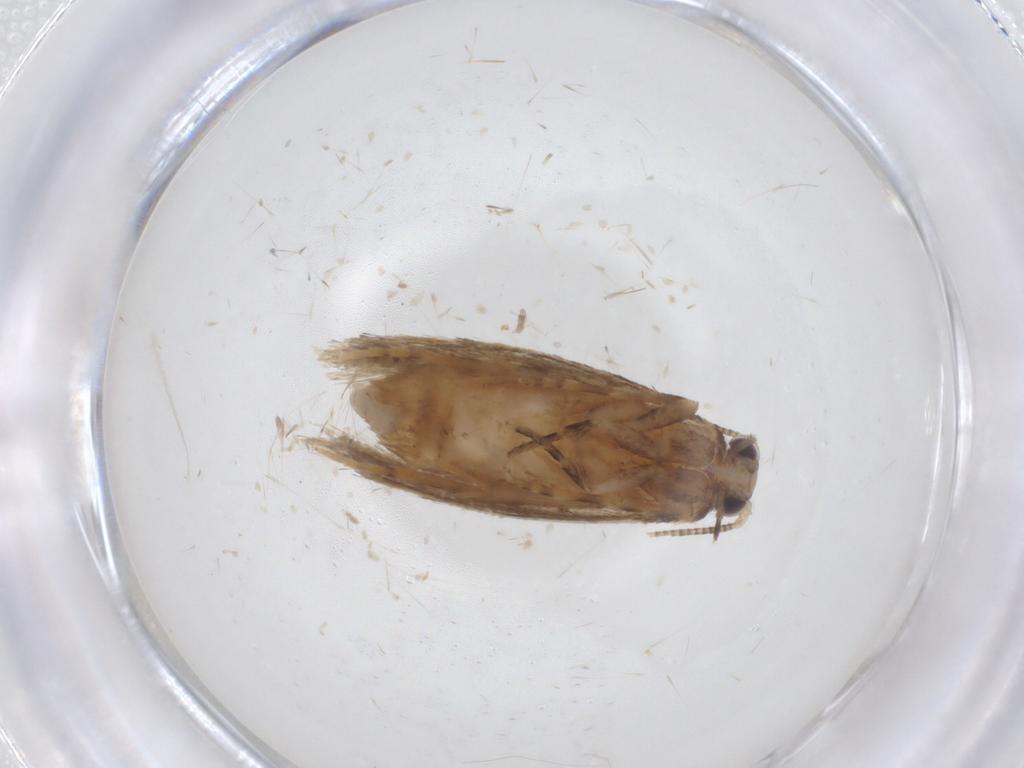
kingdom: Animalia
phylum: Arthropoda
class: Insecta
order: Lepidoptera
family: Tineidae
